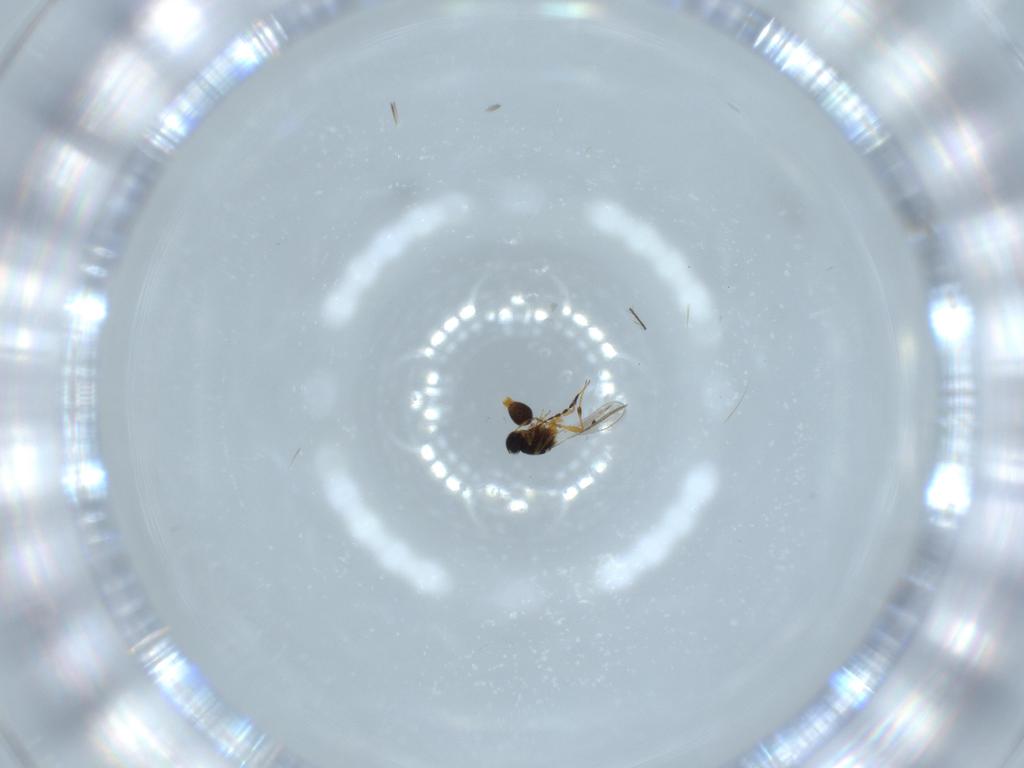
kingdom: Animalia
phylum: Arthropoda
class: Insecta
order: Hymenoptera
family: Platygastridae
